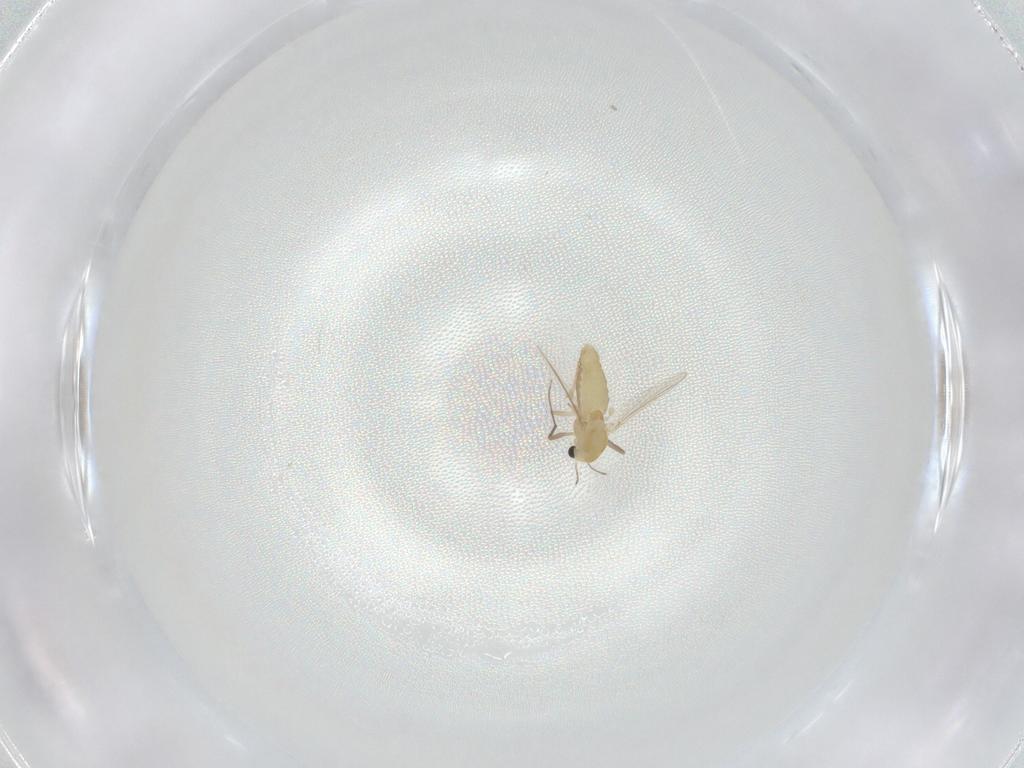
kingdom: Animalia
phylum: Arthropoda
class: Insecta
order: Diptera
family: Chironomidae
